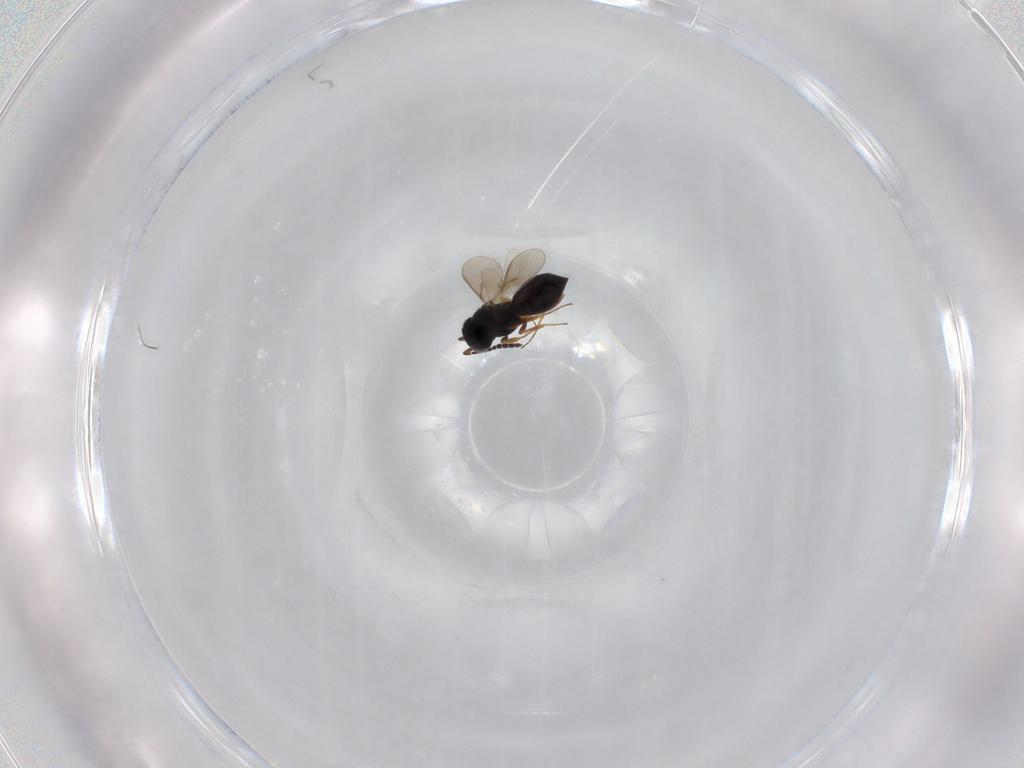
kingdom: Animalia
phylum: Arthropoda
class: Insecta
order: Hymenoptera
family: Scelionidae
